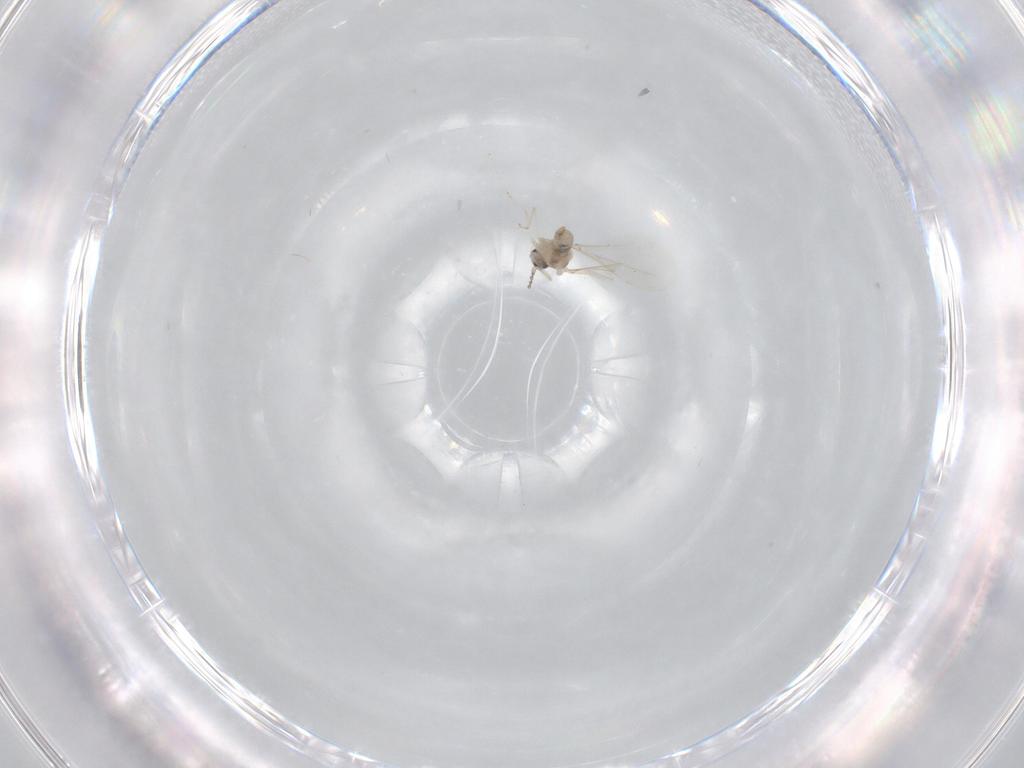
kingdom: Animalia
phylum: Arthropoda
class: Insecta
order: Diptera
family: Cecidomyiidae
